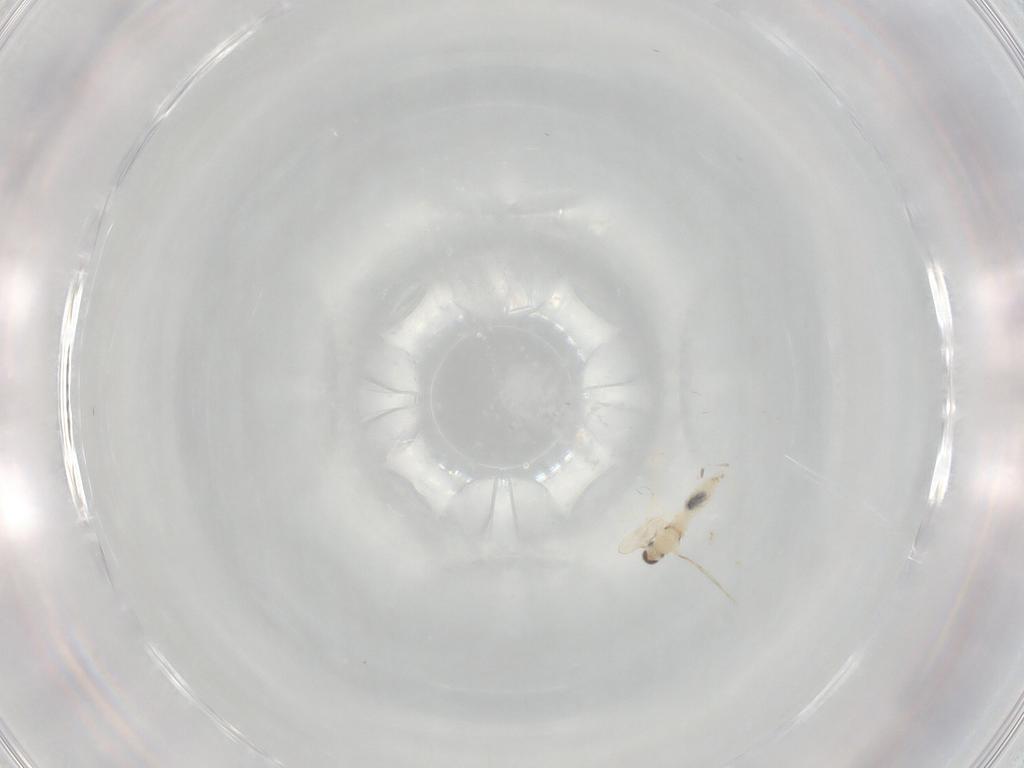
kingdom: Animalia
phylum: Arthropoda
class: Insecta
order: Diptera
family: Cecidomyiidae
